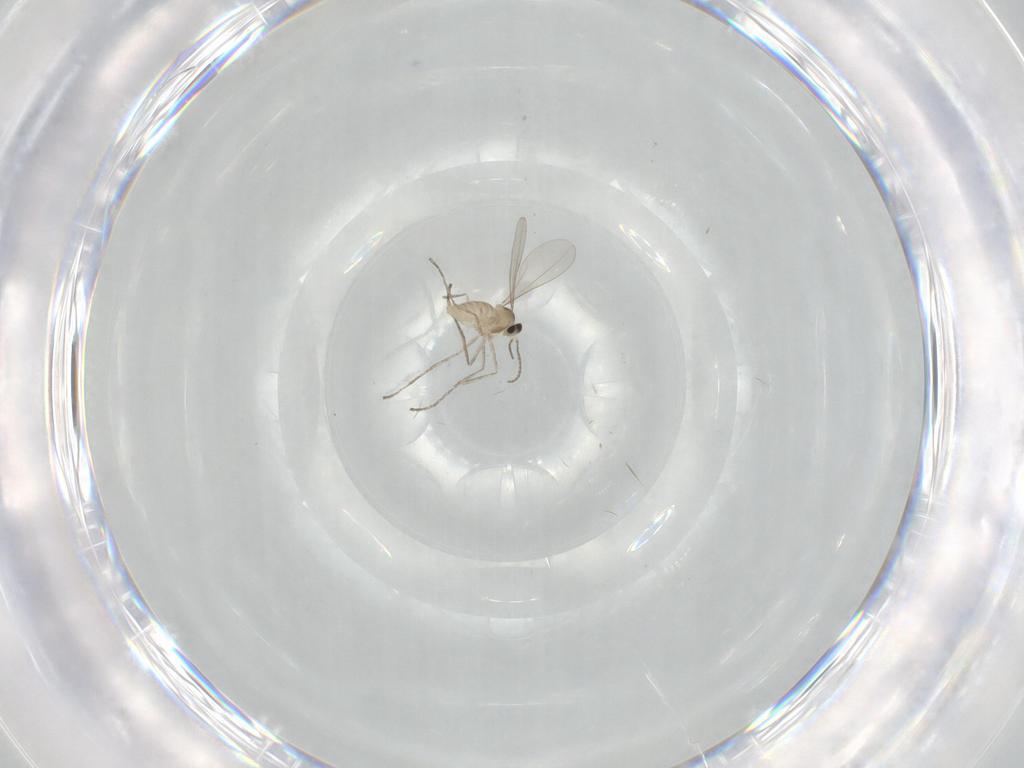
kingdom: Animalia
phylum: Arthropoda
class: Insecta
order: Diptera
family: Cecidomyiidae
